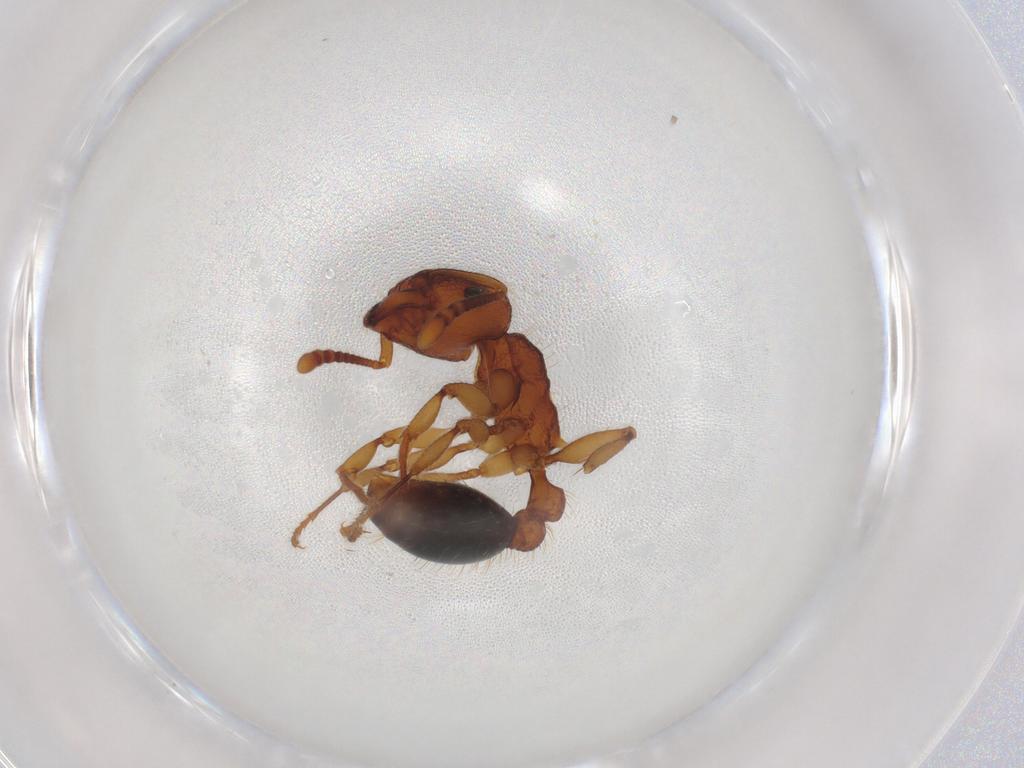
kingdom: Animalia
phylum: Arthropoda
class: Insecta
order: Hymenoptera
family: Formicidae
